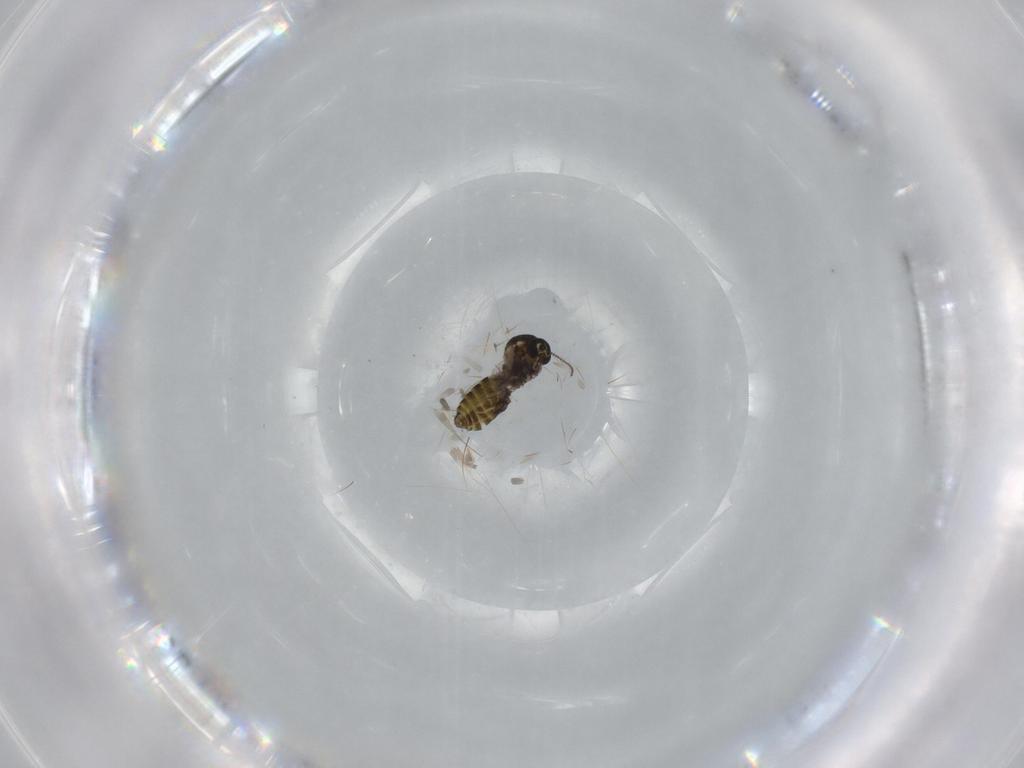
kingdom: Animalia
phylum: Arthropoda
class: Insecta
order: Diptera
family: Ceratopogonidae
